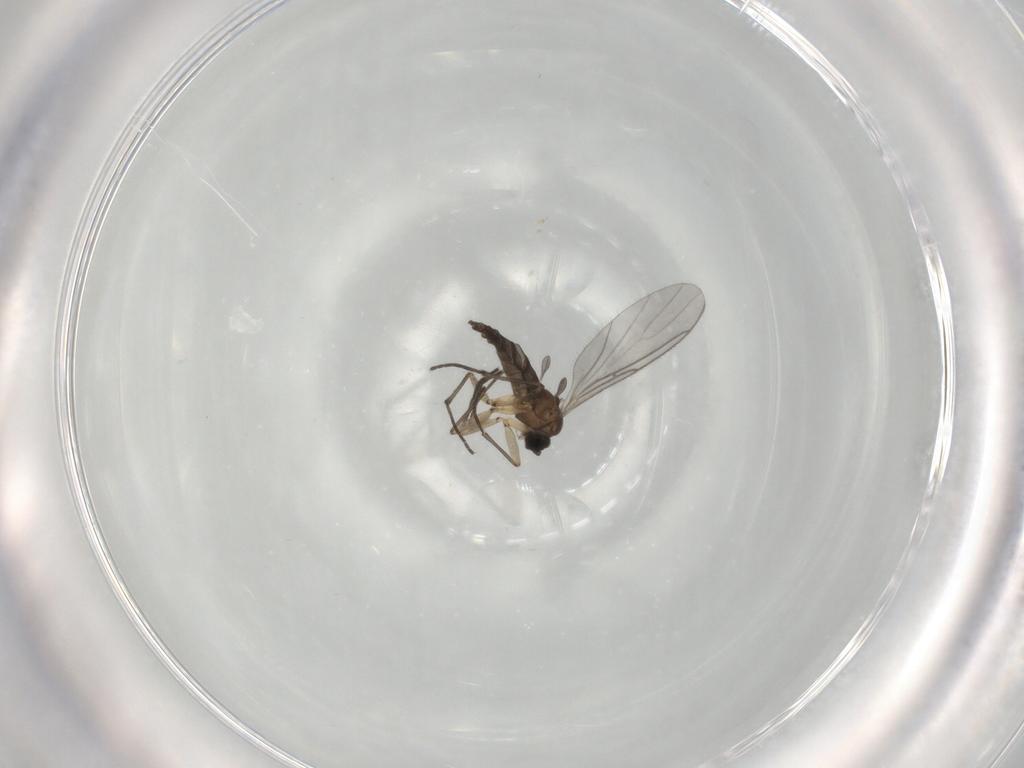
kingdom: Animalia
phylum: Arthropoda
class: Insecta
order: Diptera
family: Sciaridae
